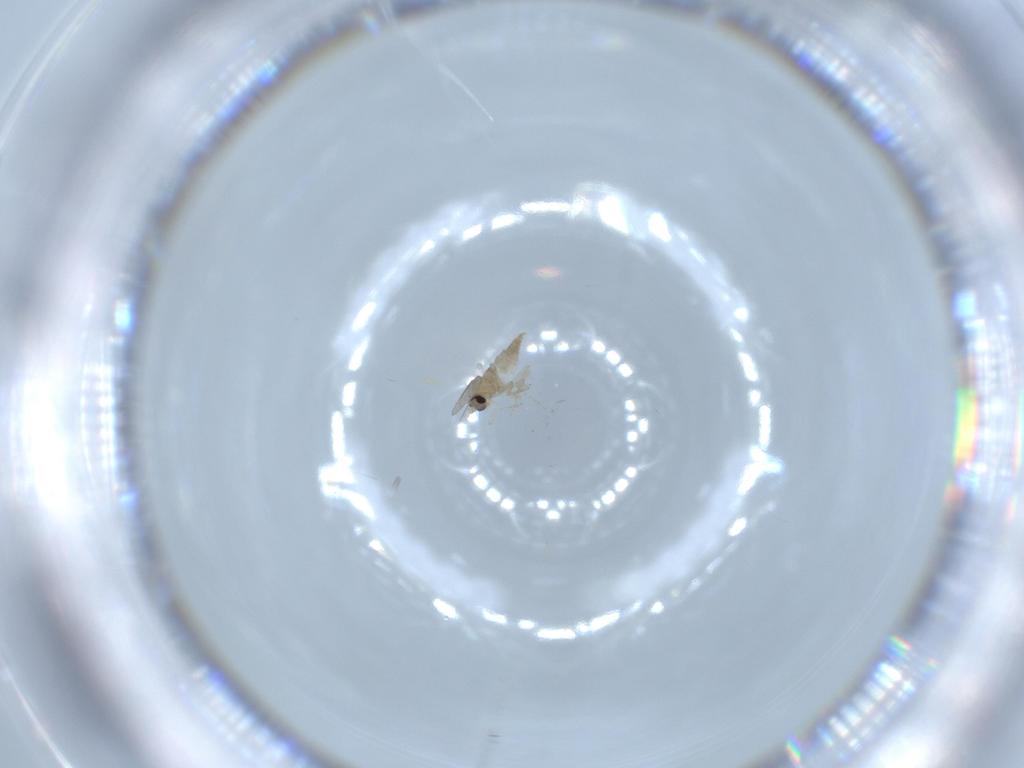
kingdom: Animalia
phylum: Arthropoda
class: Insecta
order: Diptera
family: Cecidomyiidae
